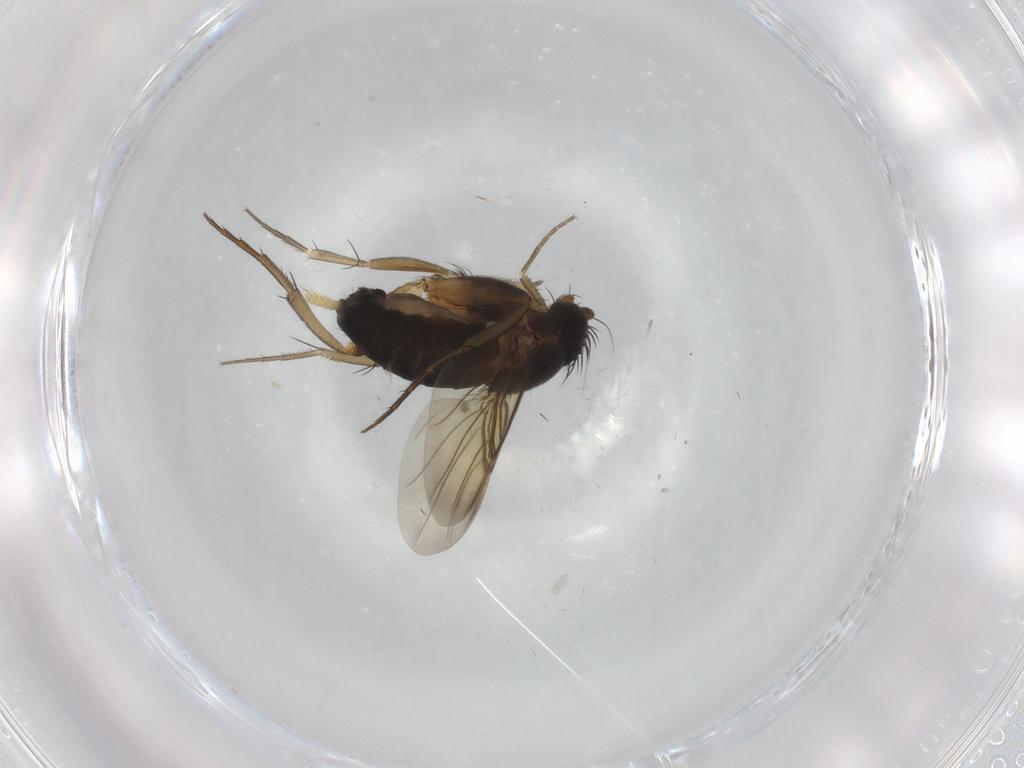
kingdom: Animalia
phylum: Arthropoda
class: Insecta
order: Diptera
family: Phoridae
